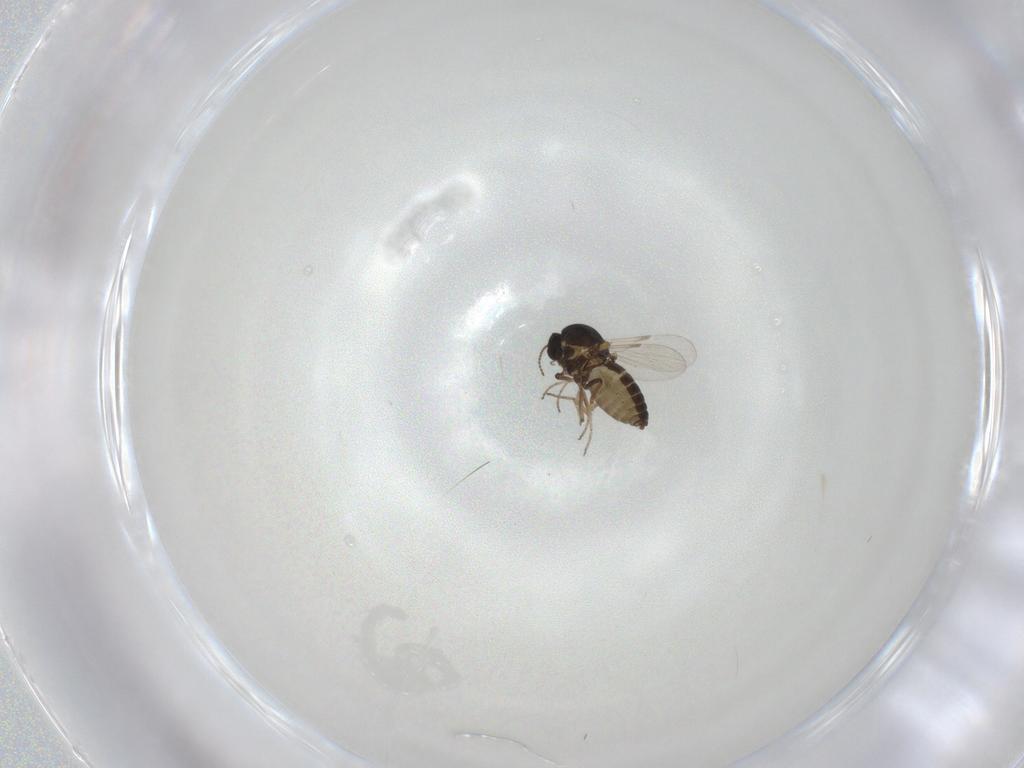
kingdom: Animalia
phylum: Arthropoda
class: Insecta
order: Diptera
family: Ceratopogonidae
